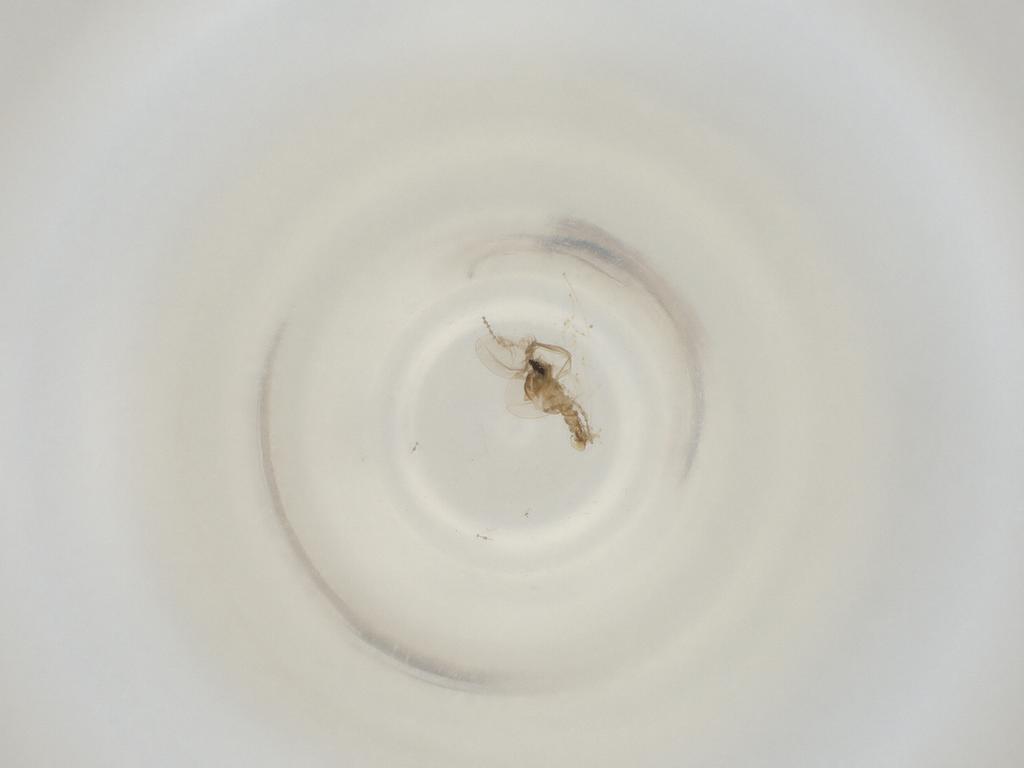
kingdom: Animalia
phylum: Arthropoda
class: Insecta
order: Diptera
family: Cecidomyiidae
